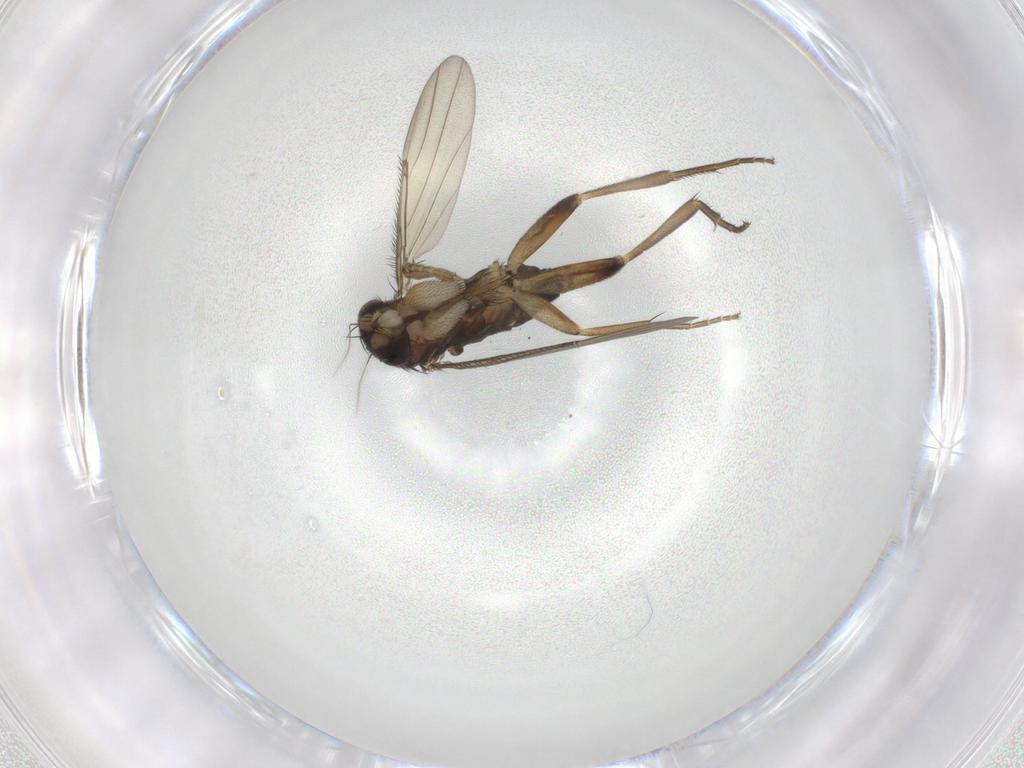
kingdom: Animalia
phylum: Arthropoda
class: Insecta
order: Diptera
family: Phoridae
